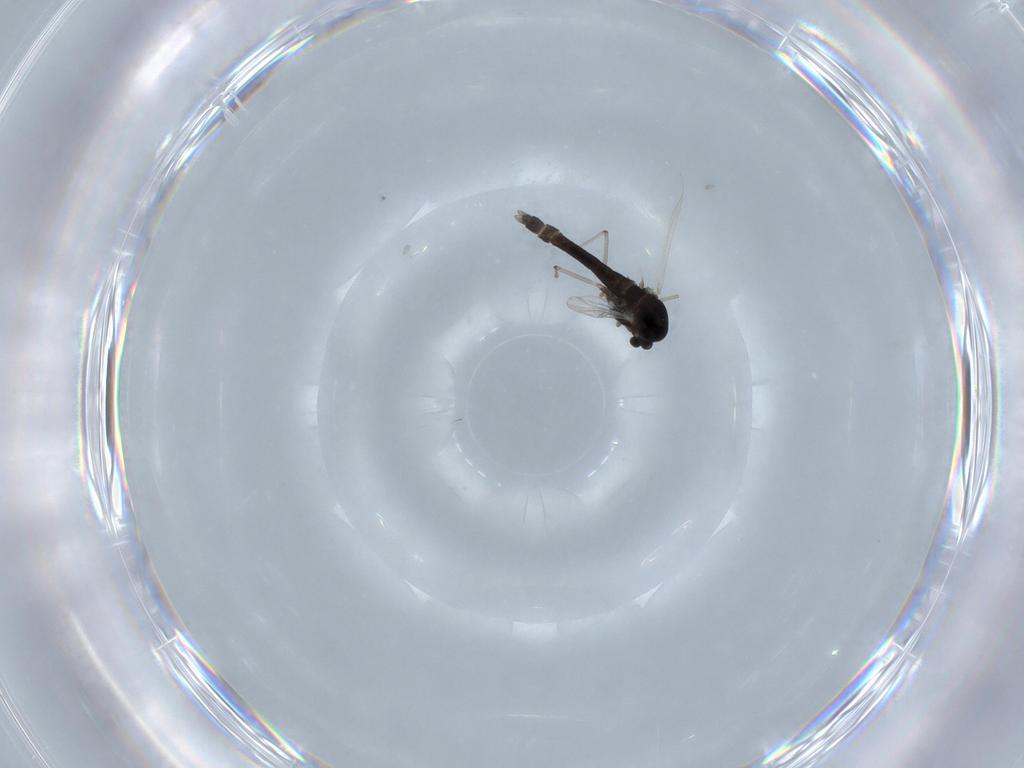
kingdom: Animalia
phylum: Arthropoda
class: Insecta
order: Diptera
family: Chironomidae
